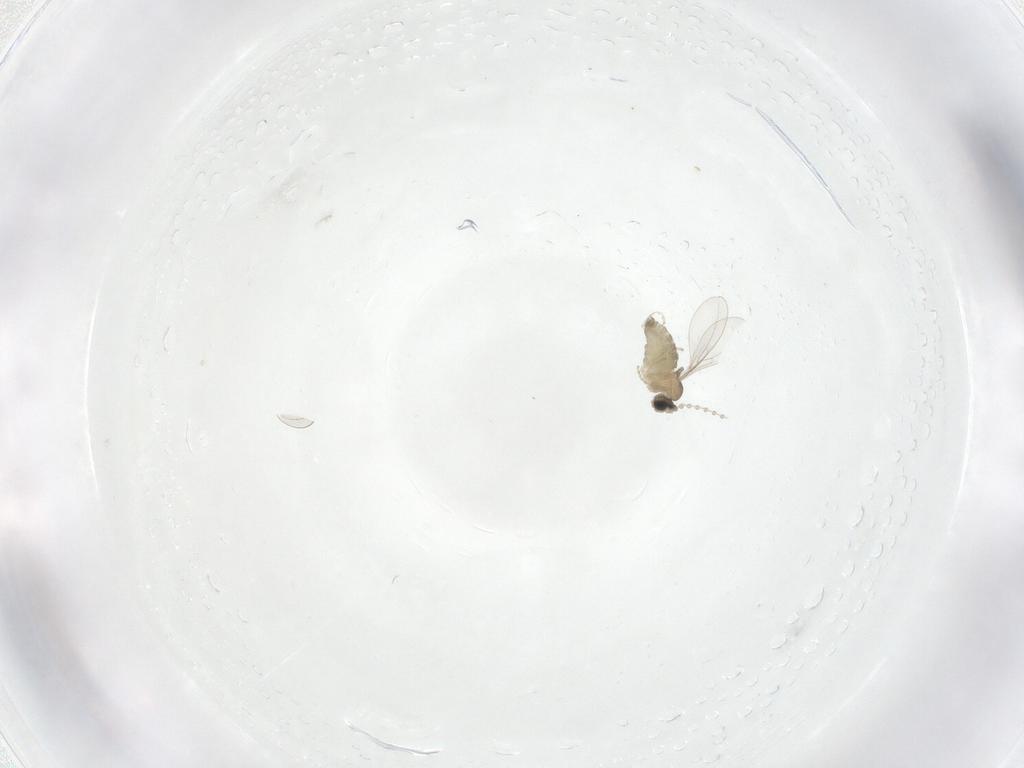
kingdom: Animalia
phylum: Arthropoda
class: Insecta
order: Diptera
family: Cecidomyiidae
